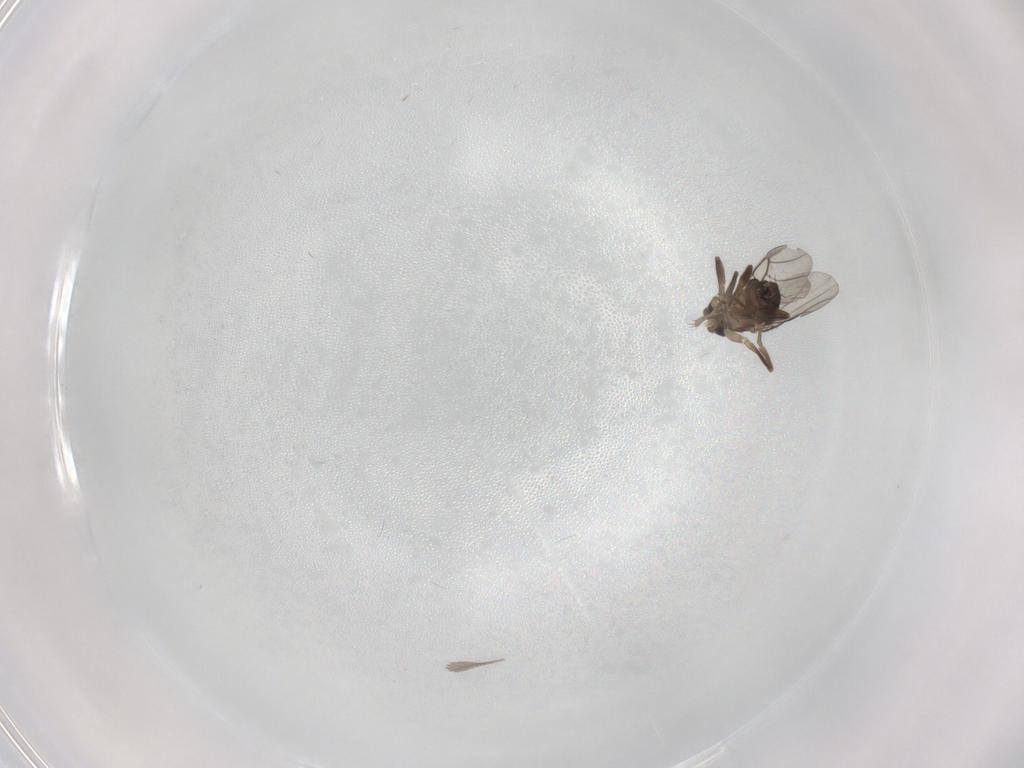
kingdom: Animalia
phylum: Arthropoda
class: Insecta
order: Diptera
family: Phoridae
